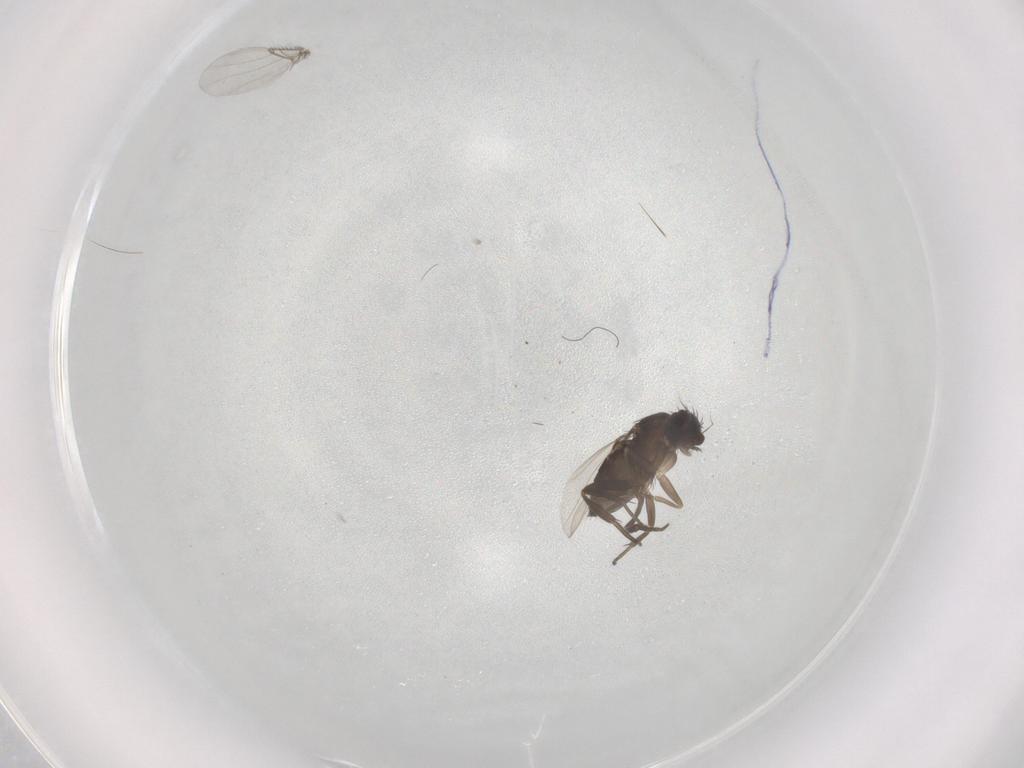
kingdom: Animalia
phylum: Arthropoda
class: Insecta
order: Diptera
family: Phoridae
